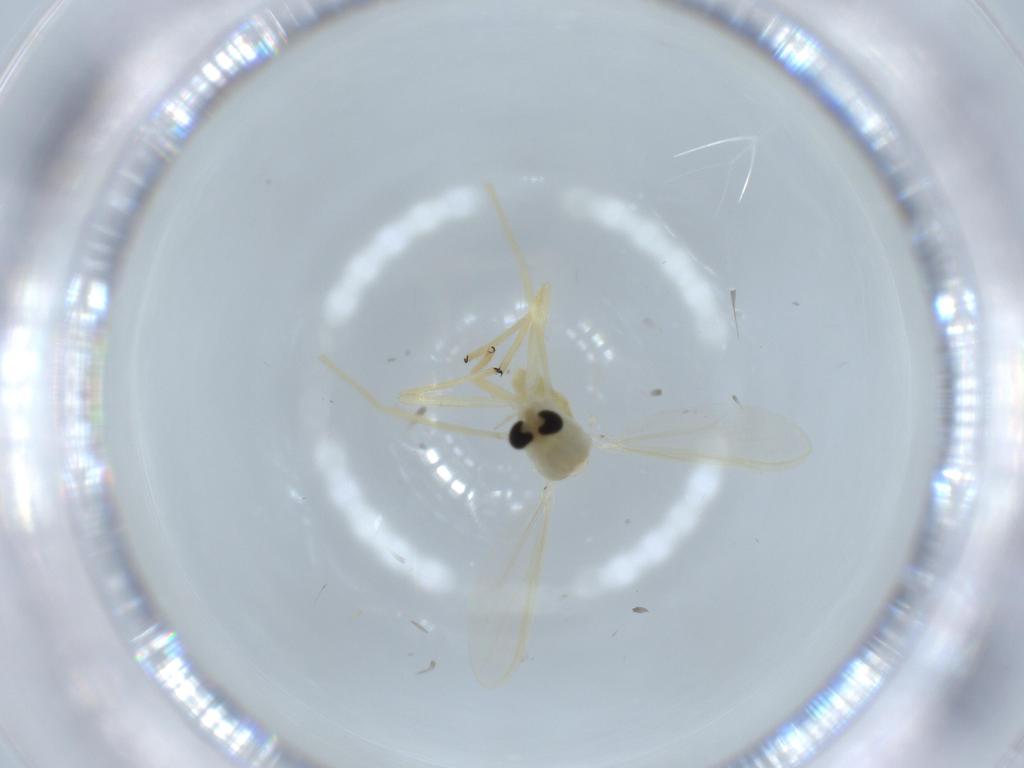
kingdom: Animalia
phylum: Arthropoda
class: Insecta
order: Diptera
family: Chironomidae
